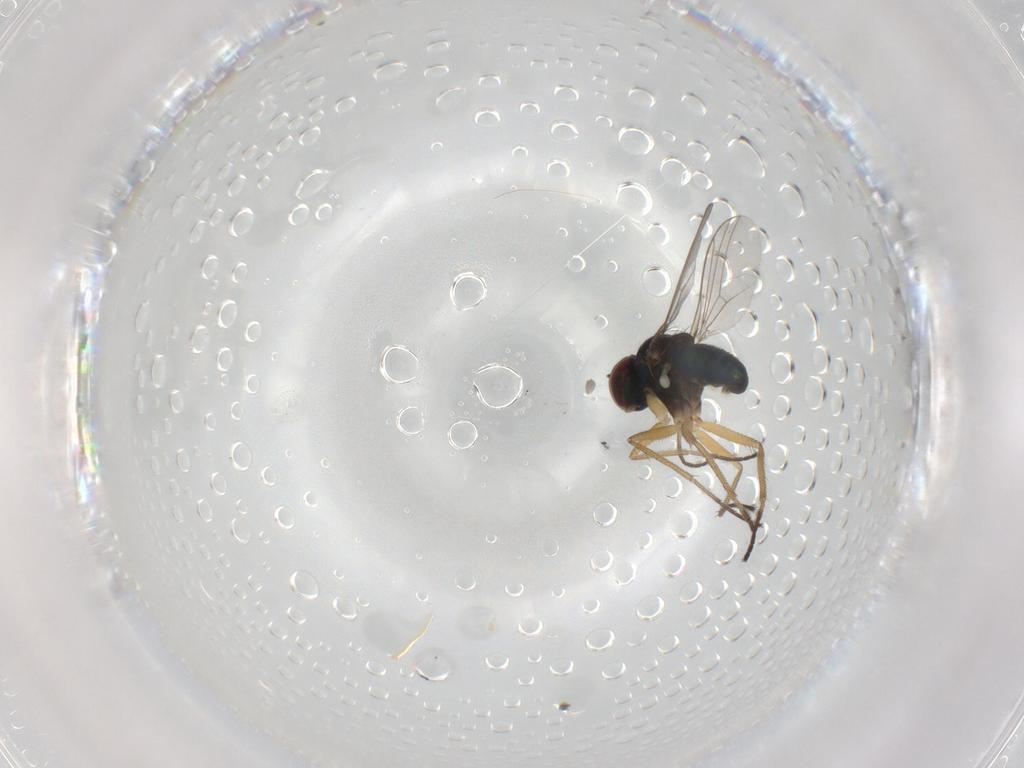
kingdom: Animalia
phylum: Arthropoda
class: Insecta
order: Diptera
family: Dolichopodidae
